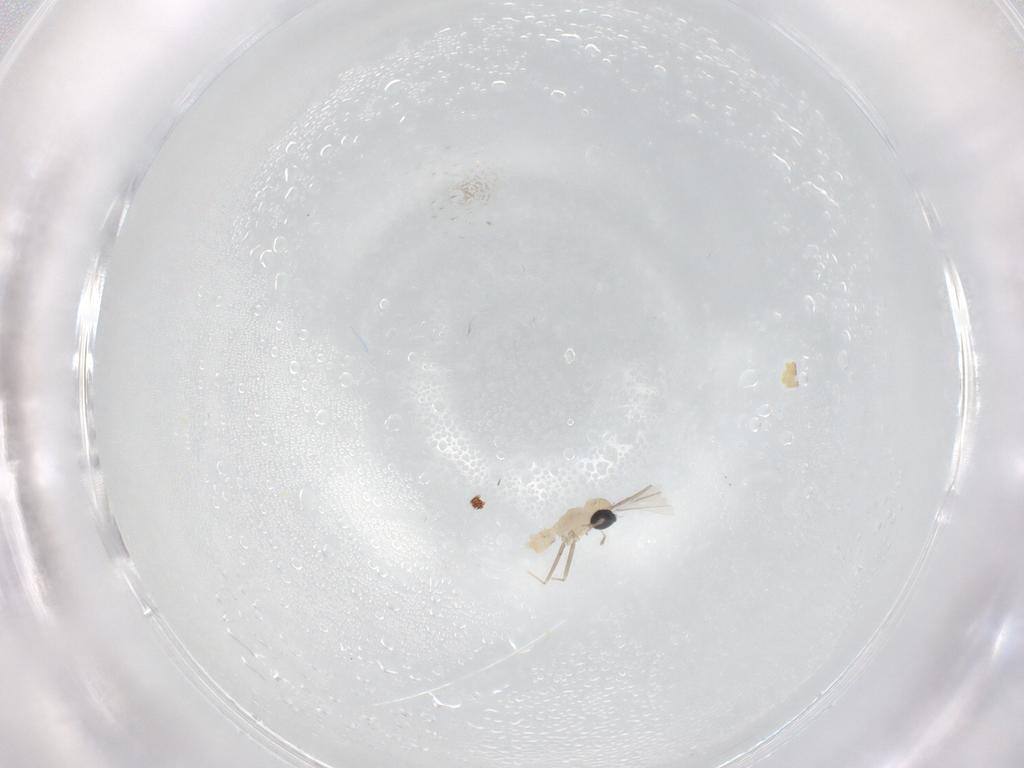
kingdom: Animalia
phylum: Arthropoda
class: Insecta
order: Diptera
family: Cecidomyiidae
